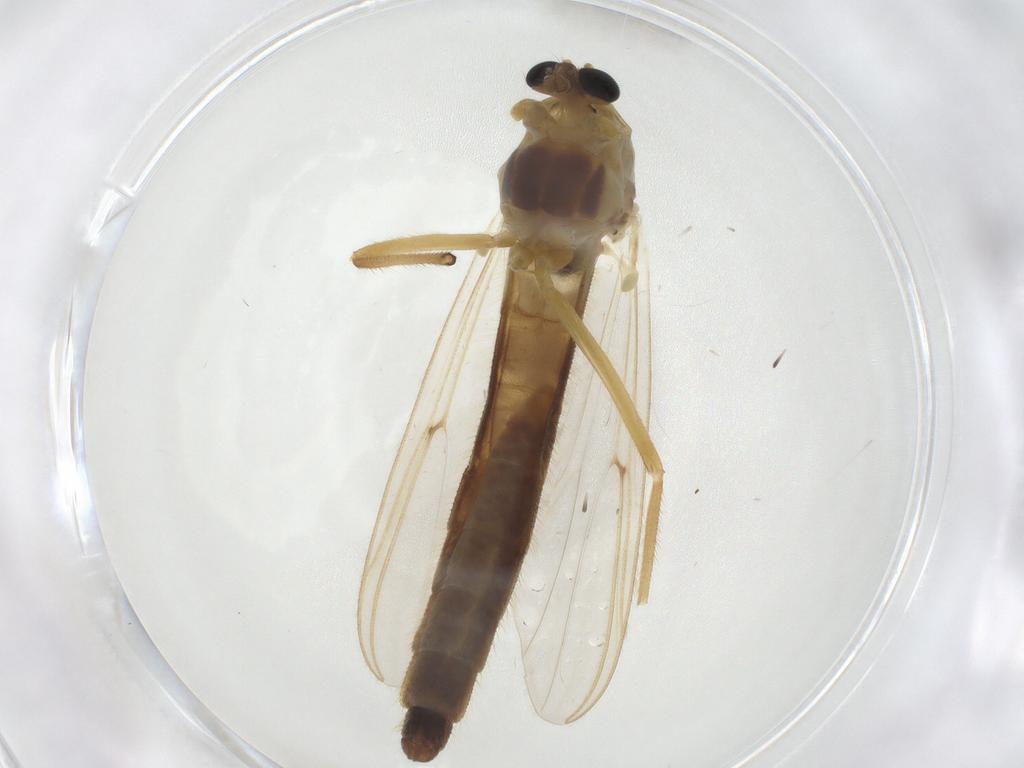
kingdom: Animalia
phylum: Arthropoda
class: Insecta
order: Diptera
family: Chironomidae
